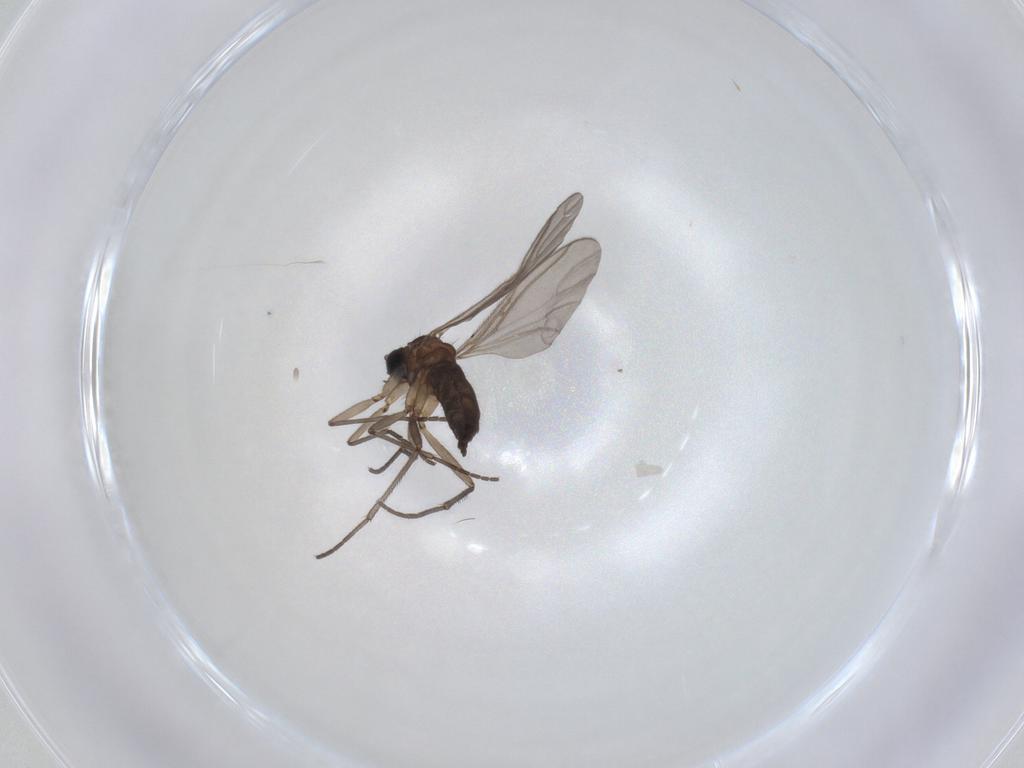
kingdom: Animalia
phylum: Arthropoda
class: Insecta
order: Diptera
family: Sciaridae
